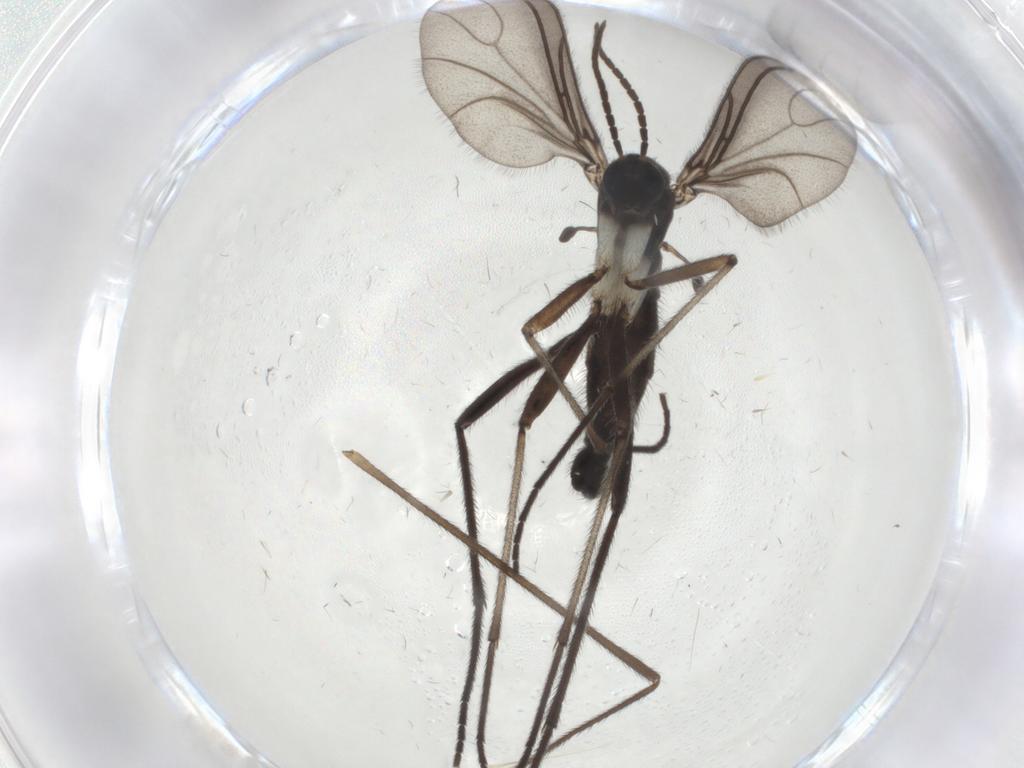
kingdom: Animalia
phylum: Arthropoda
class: Insecta
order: Diptera
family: Sciaridae
